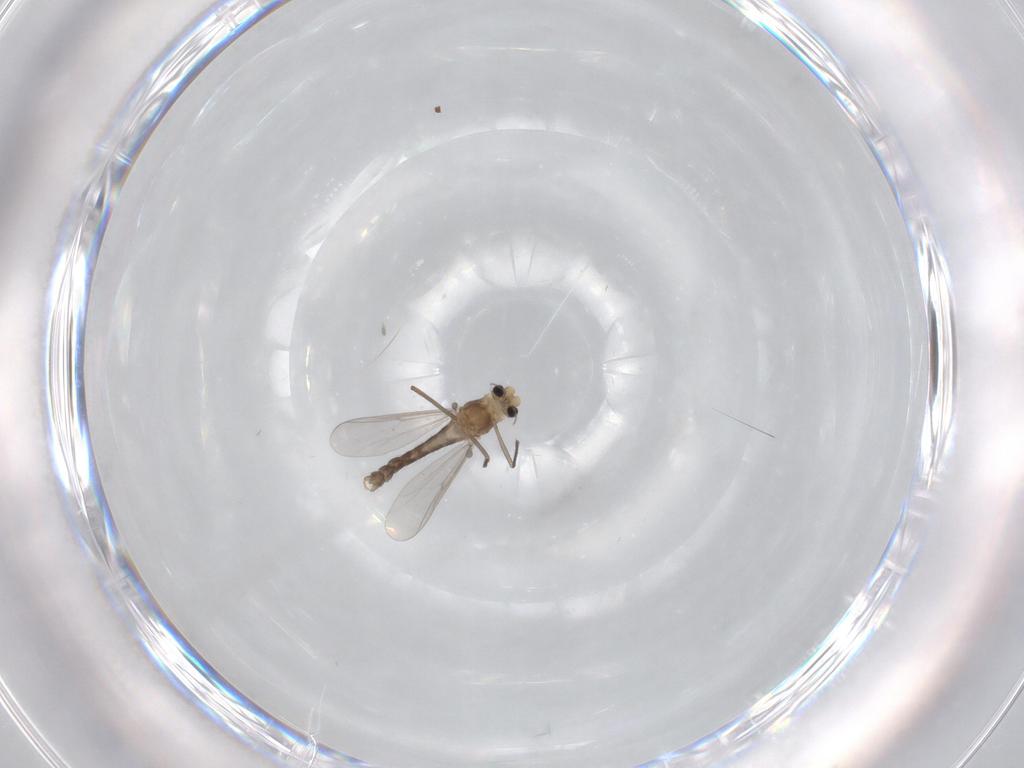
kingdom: Animalia
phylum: Arthropoda
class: Insecta
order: Diptera
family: Chironomidae
